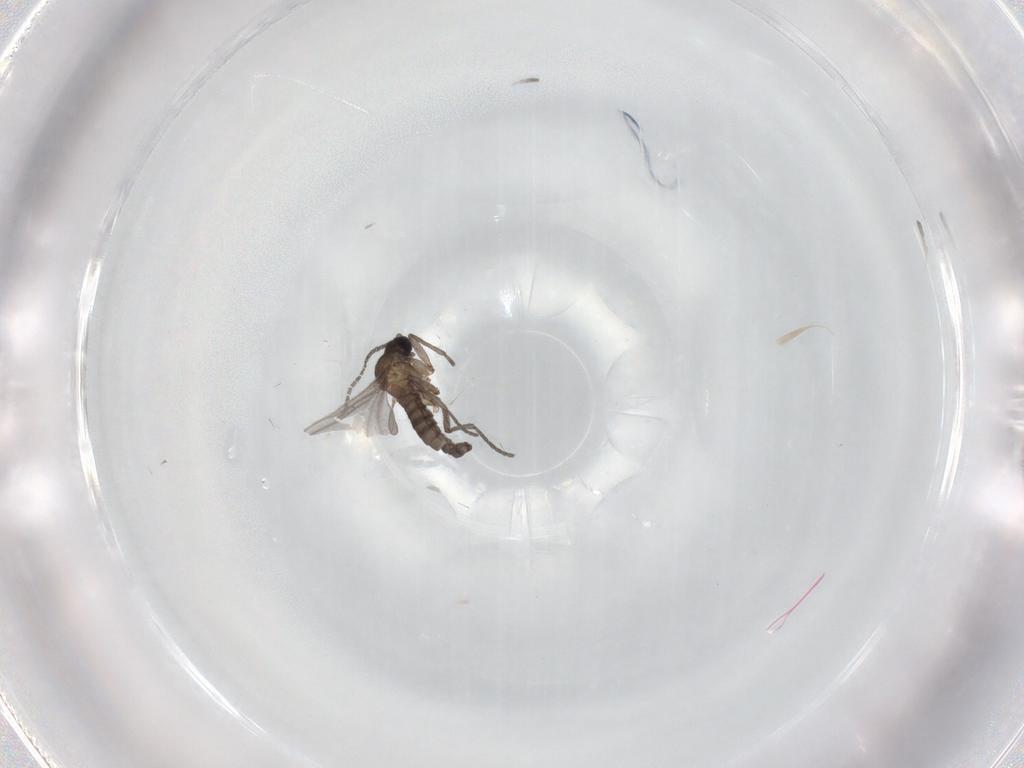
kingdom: Animalia
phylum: Arthropoda
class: Insecta
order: Diptera
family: Sciaridae
